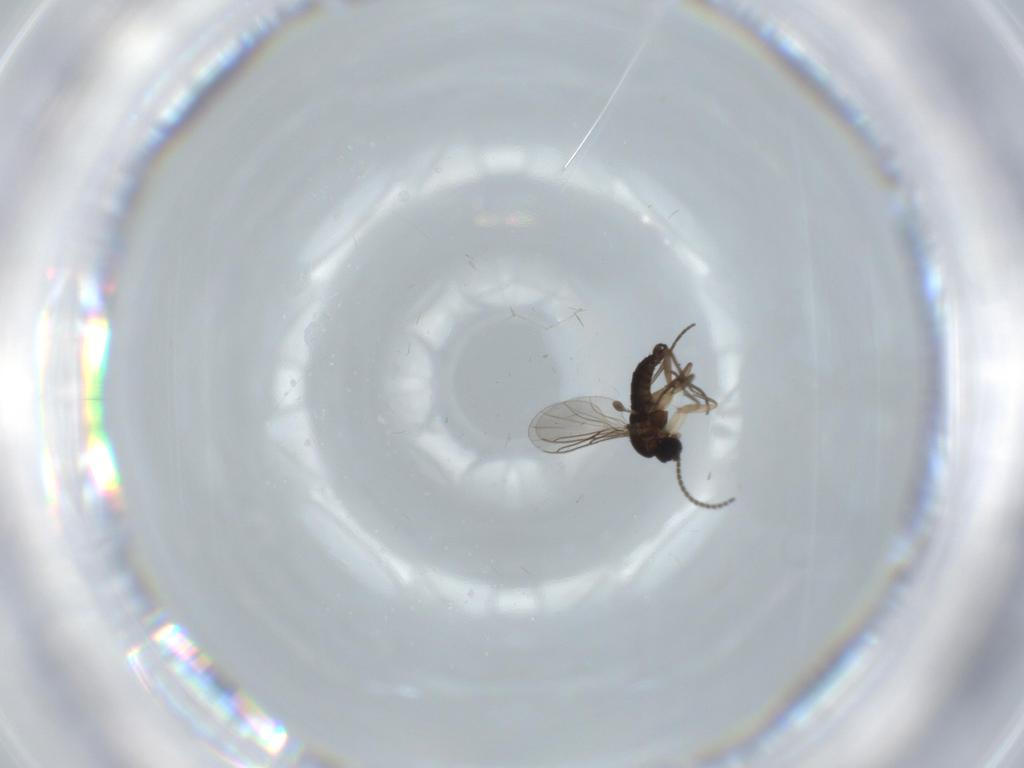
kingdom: Animalia
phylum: Arthropoda
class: Insecta
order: Diptera
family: Sciaridae
